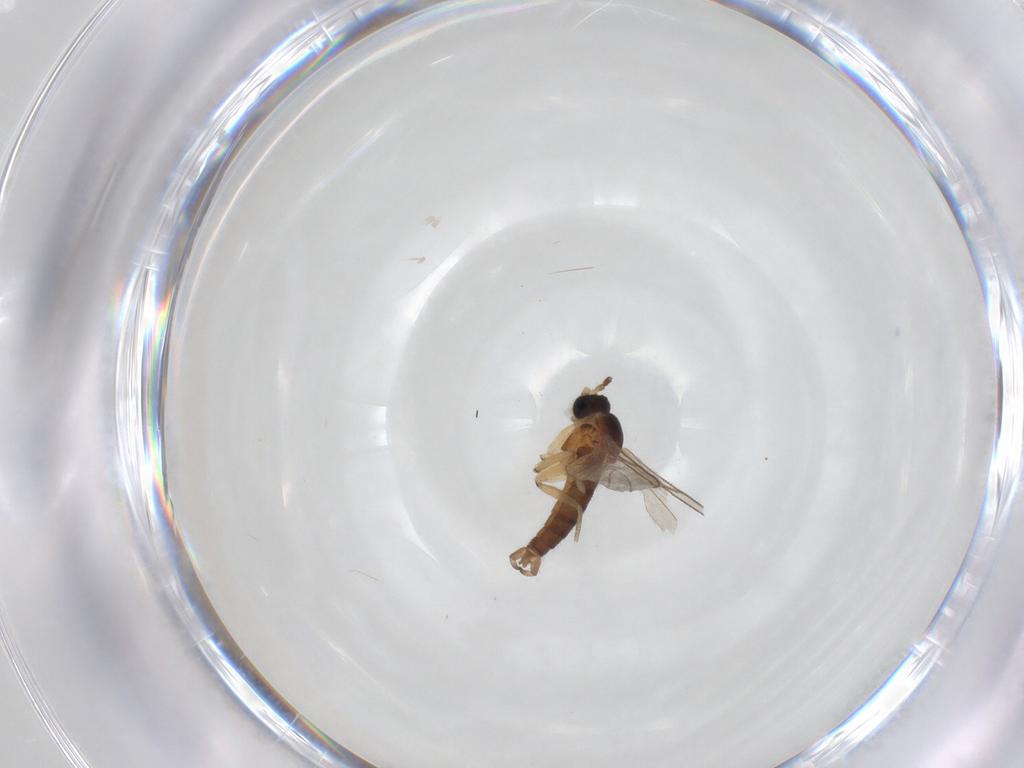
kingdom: Animalia
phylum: Arthropoda
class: Insecta
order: Diptera
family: Sciaridae
